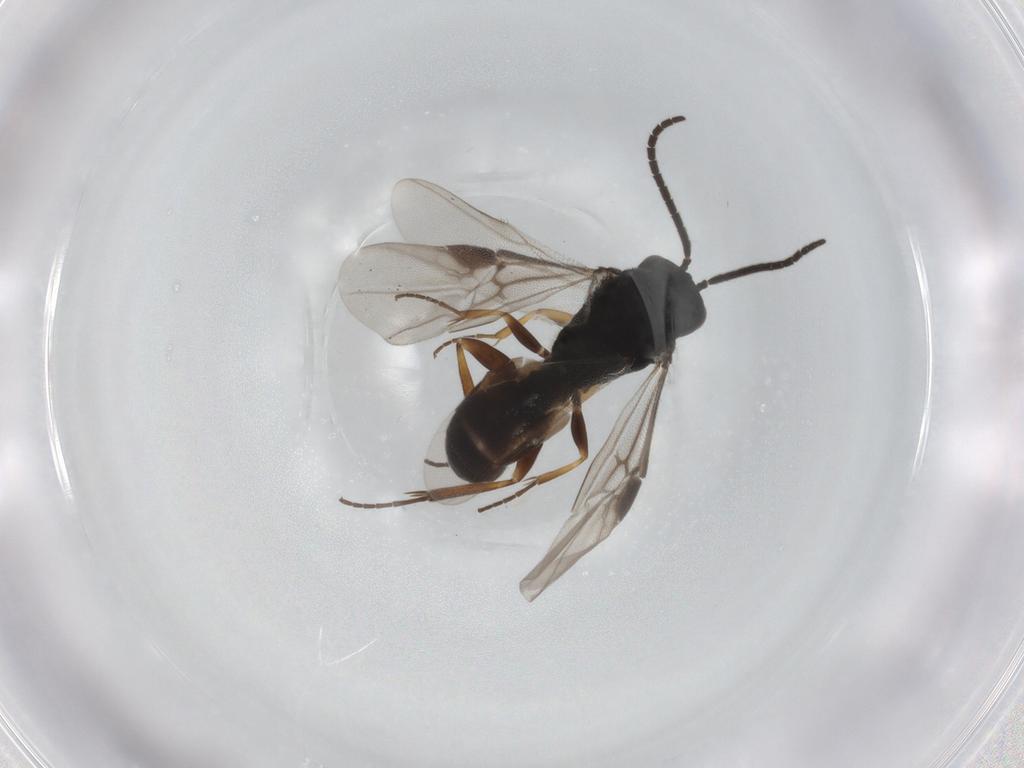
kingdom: Animalia
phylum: Arthropoda
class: Insecta
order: Hymenoptera
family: Braconidae
